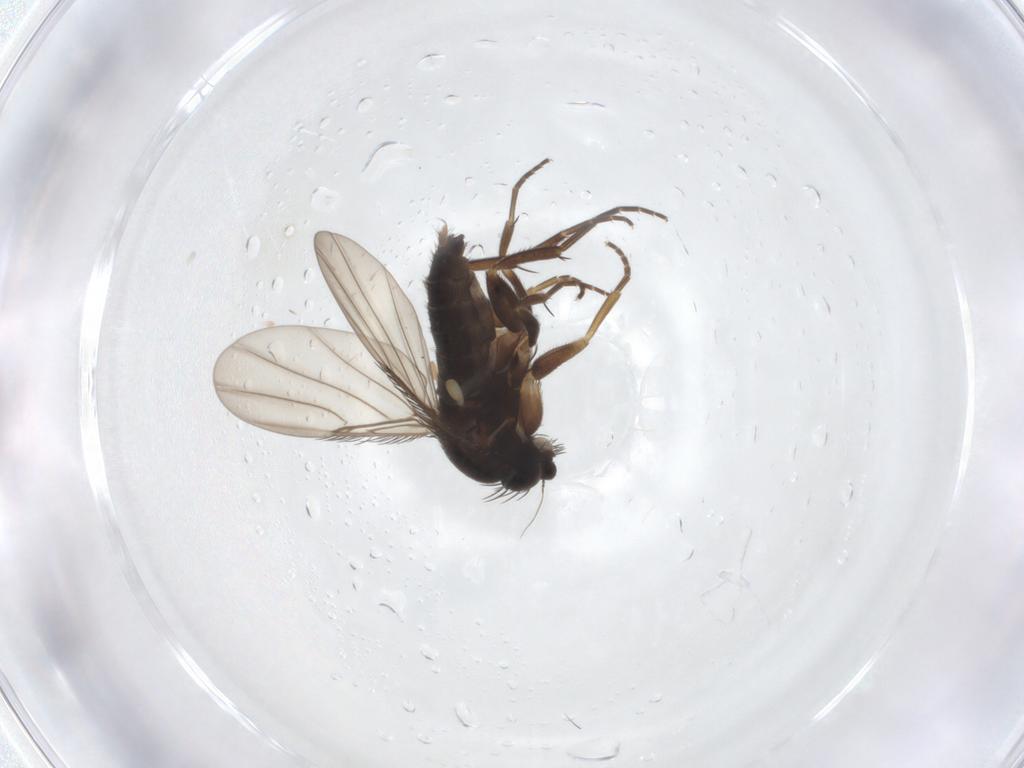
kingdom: Animalia
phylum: Arthropoda
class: Insecta
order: Diptera
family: Phoridae
